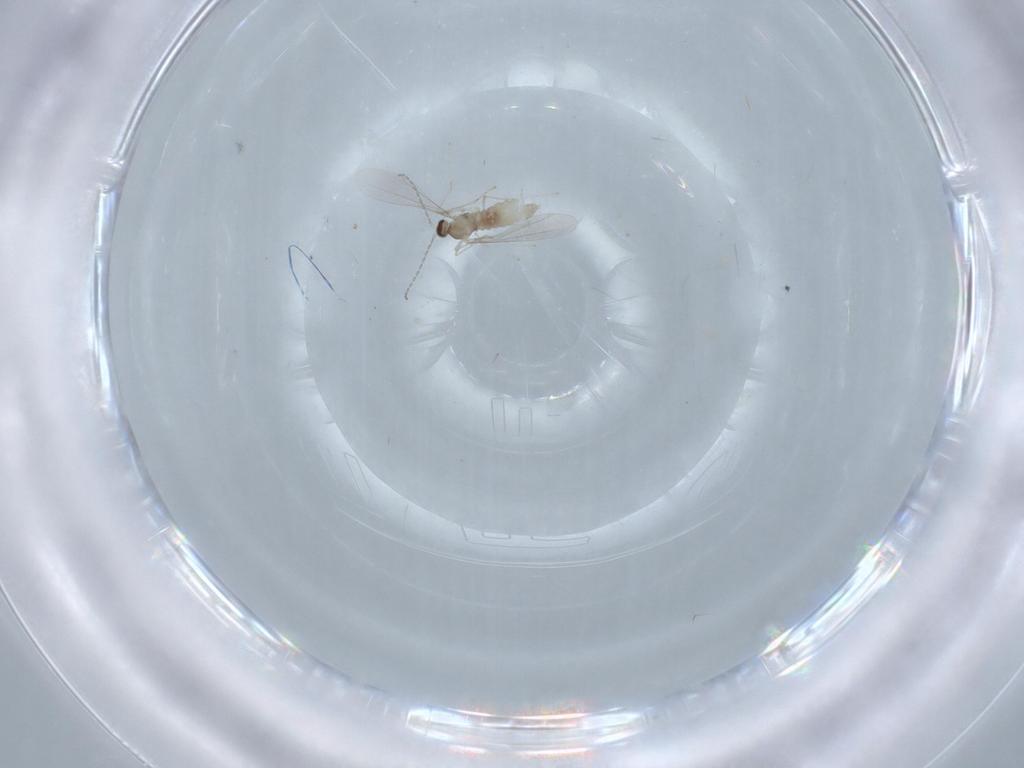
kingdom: Animalia
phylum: Arthropoda
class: Insecta
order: Diptera
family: Cecidomyiidae
